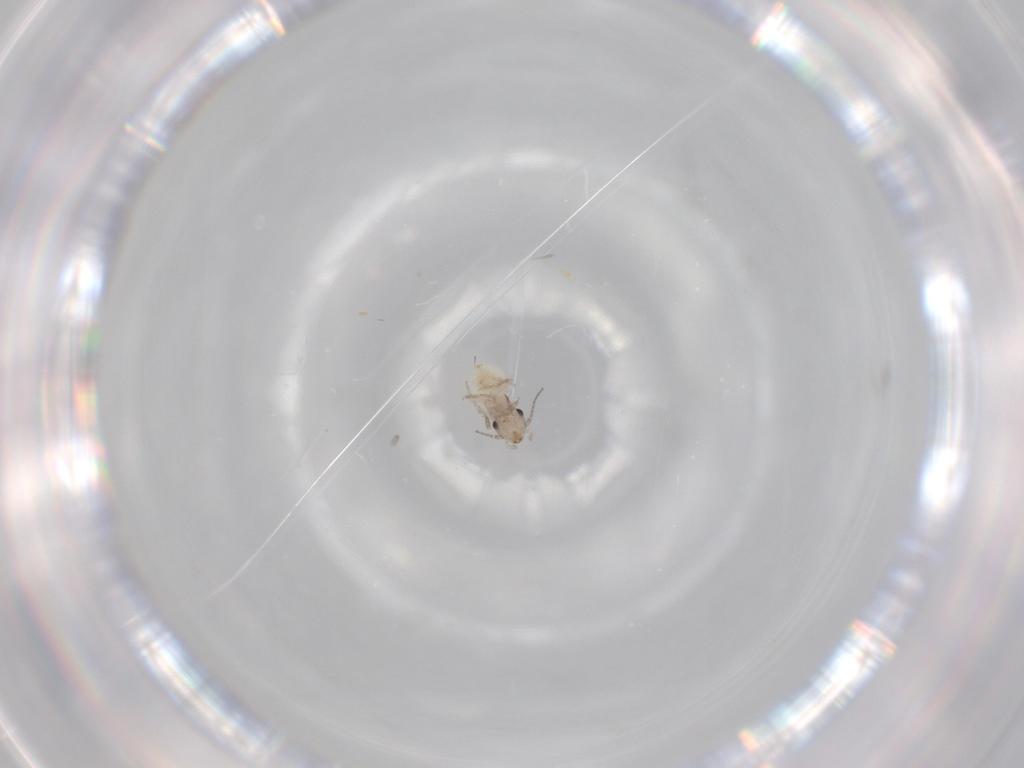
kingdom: Animalia
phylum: Arthropoda
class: Insecta
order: Psocodea
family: Lepidopsocidae
